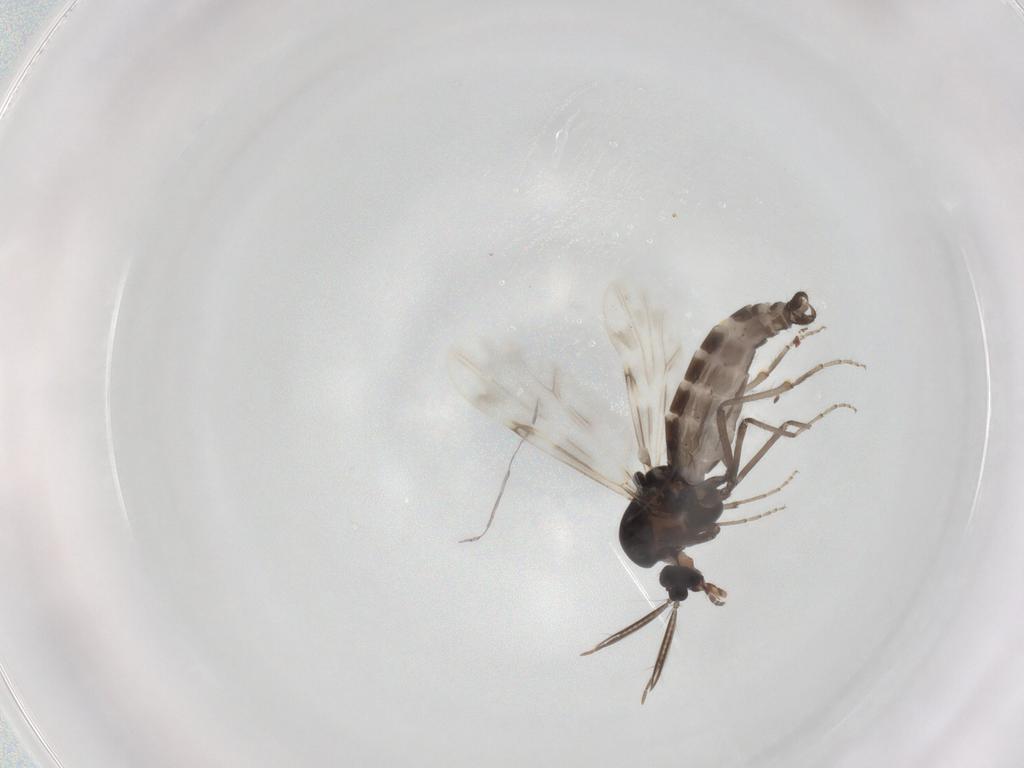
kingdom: Animalia
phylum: Arthropoda
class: Insecta
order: Diptera
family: Ceratopogonidae
